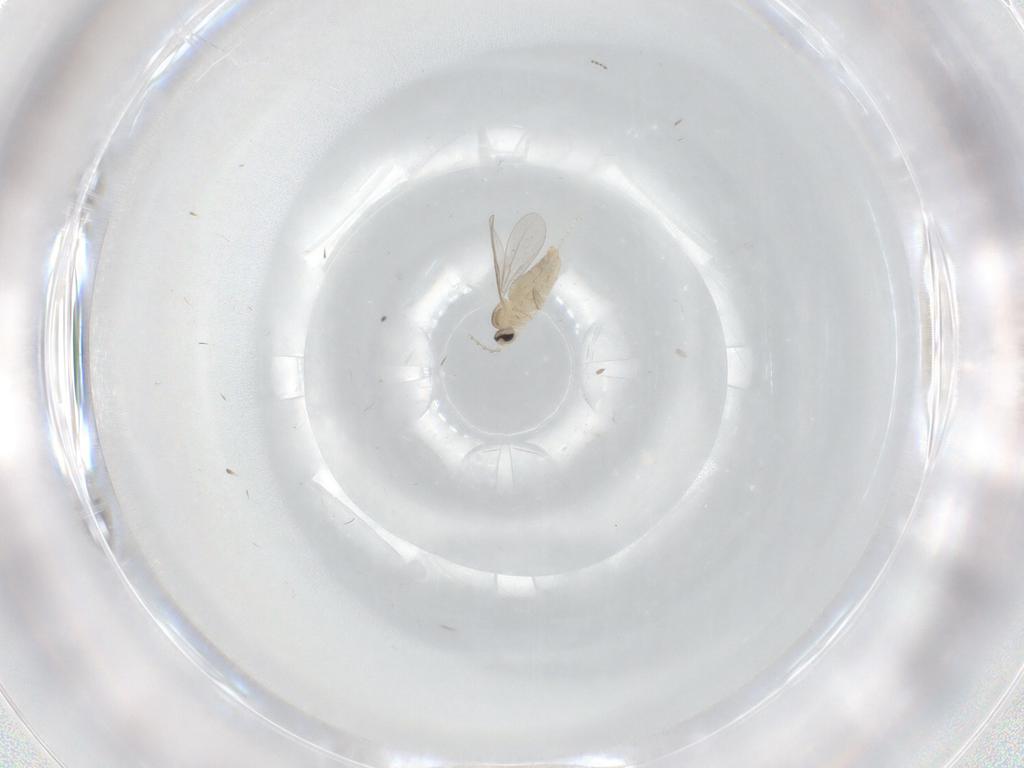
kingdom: Animalia
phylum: Arthropoda
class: Insecta
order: Diptera
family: Cecidomyiidae
